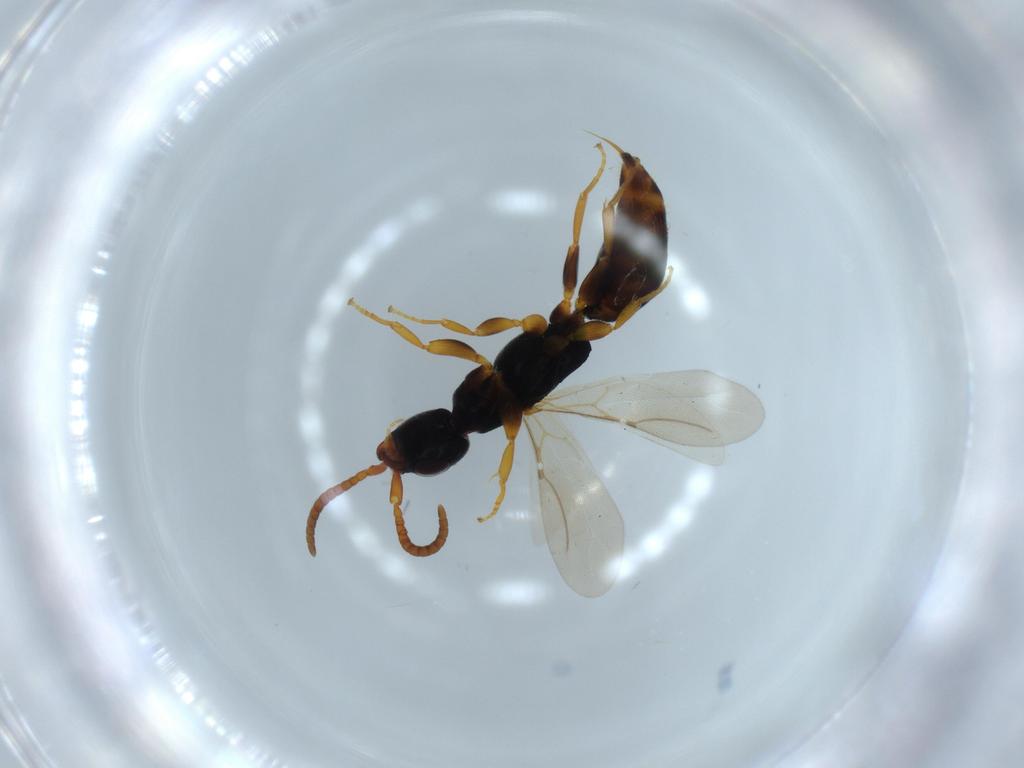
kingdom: Animalia
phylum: Arthropoda
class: Insecta
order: Hymenoptera
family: Bethylidae
